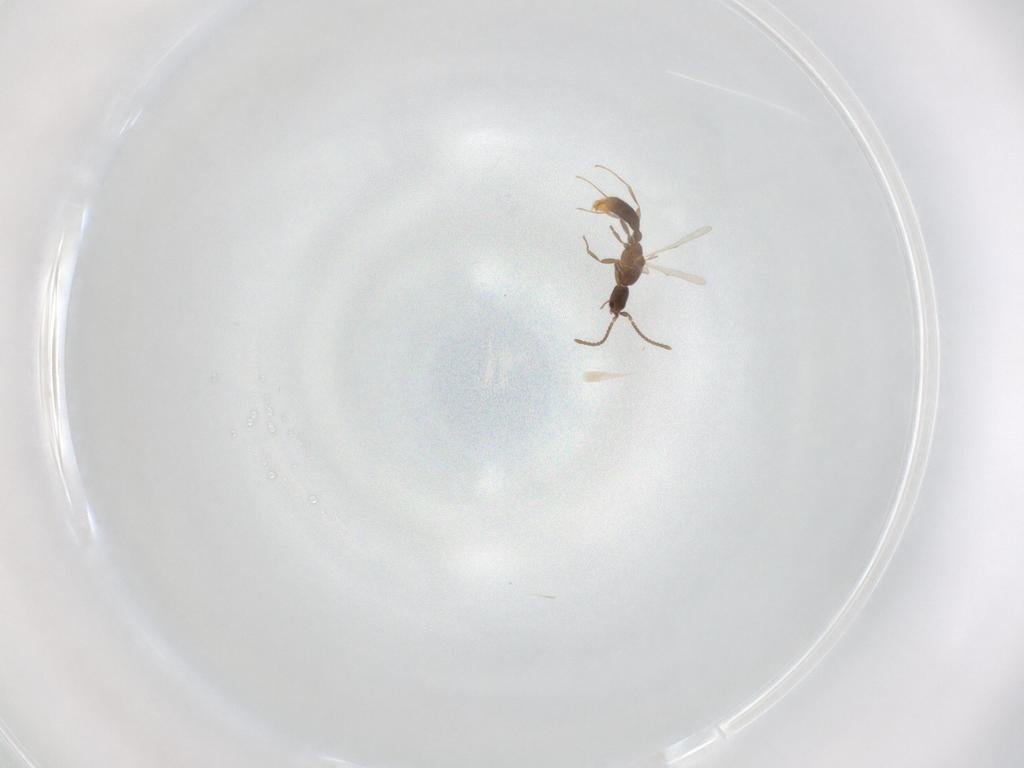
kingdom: Animalia
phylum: Arthropoda
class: Insecta
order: Hymenoptera
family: Formicidae
